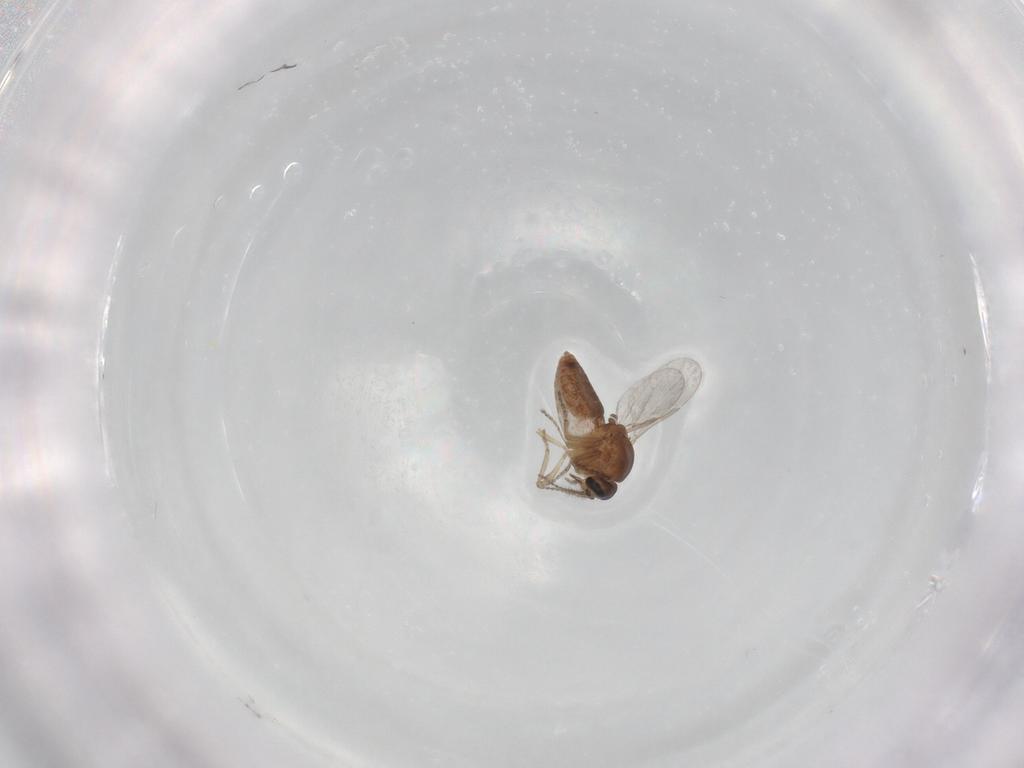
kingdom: Animalia
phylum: Arthropoda
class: Insecta
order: Diptera
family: Ceratopogonidae
